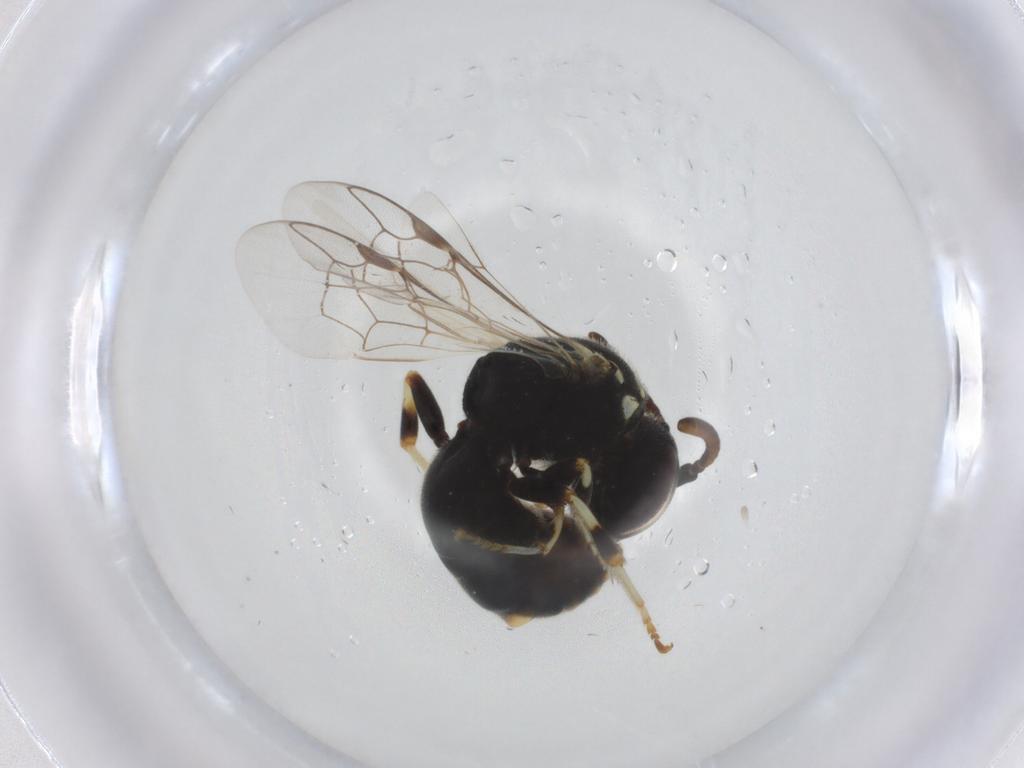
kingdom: Animalia
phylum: Arthropoda
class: Insecta
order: Hymenoptera
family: Colletidae
